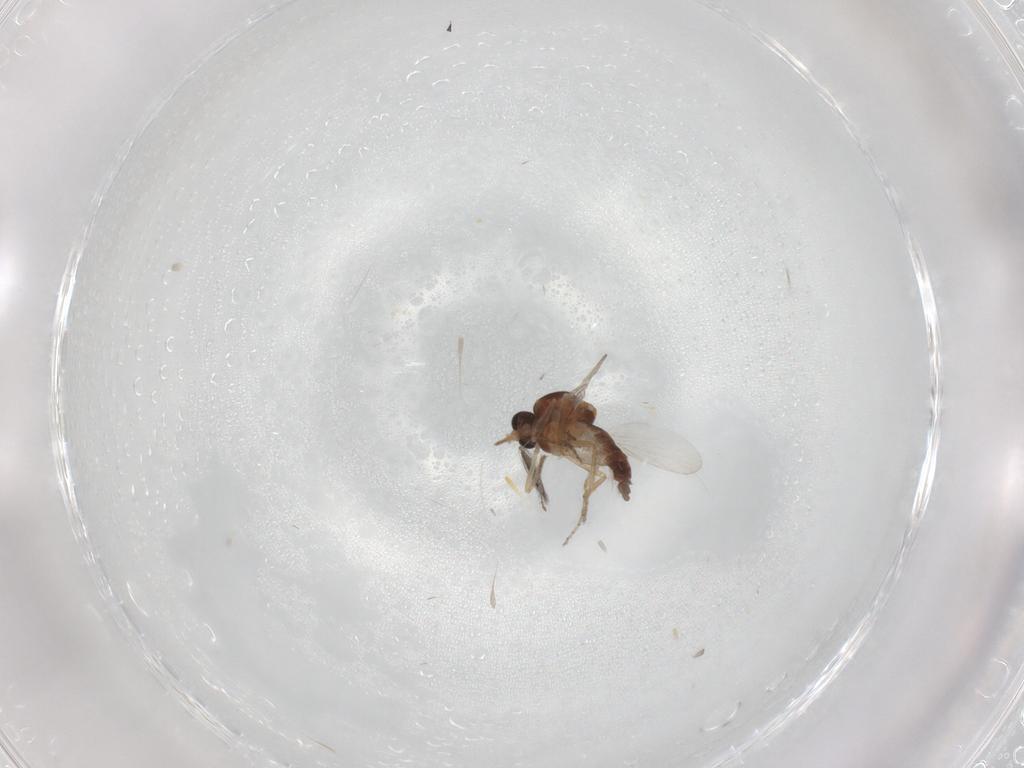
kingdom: Animalia
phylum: Arthropoda
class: Insecta
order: Diptera
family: Ceratopogonidae
